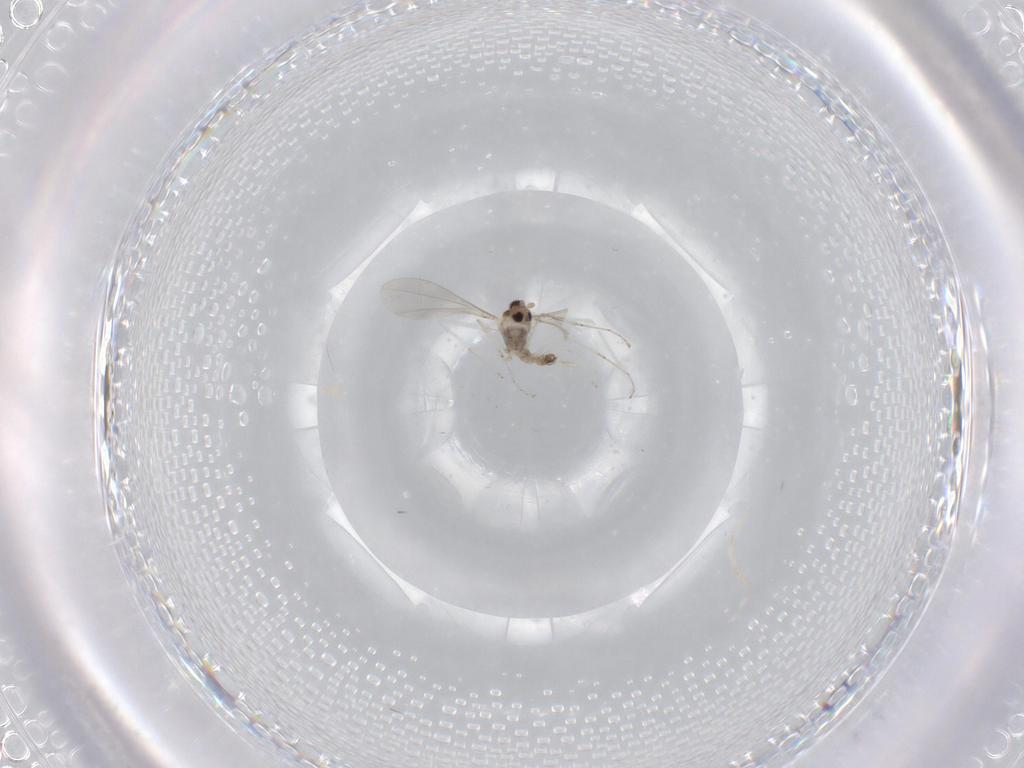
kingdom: Animalia
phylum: Arthropoda
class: Insecta
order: Diptera
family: Cecidomyiidae
